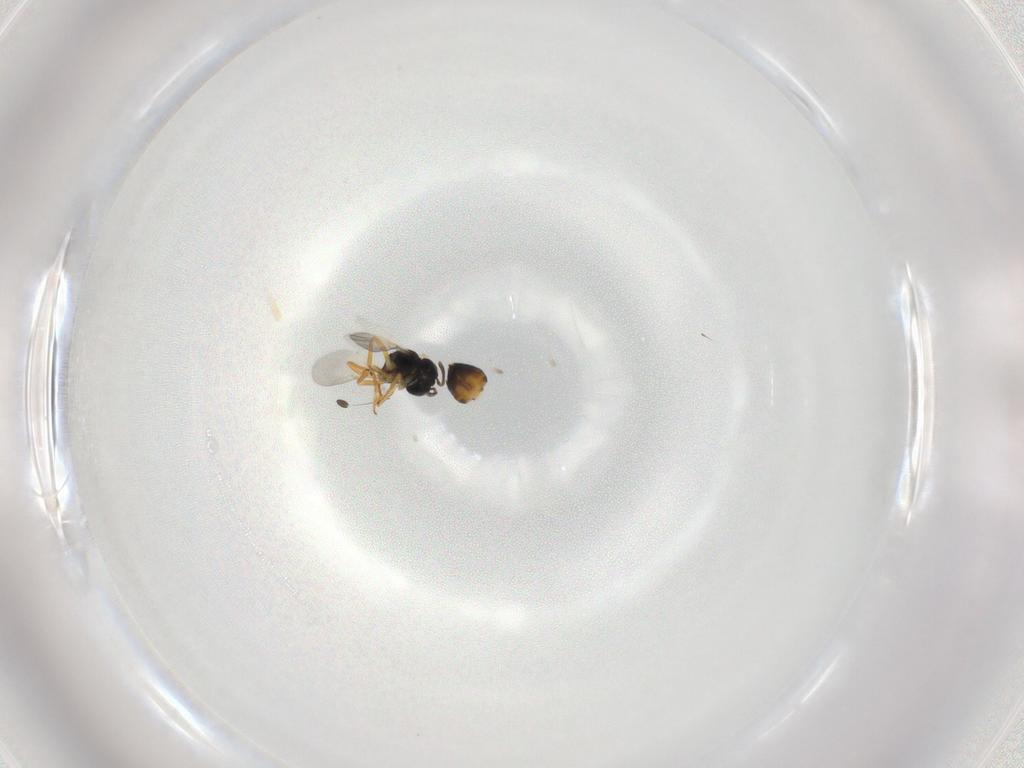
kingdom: Animalia
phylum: Arthropoda
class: Insecta
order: Hymenoptera
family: Encyrtidae
